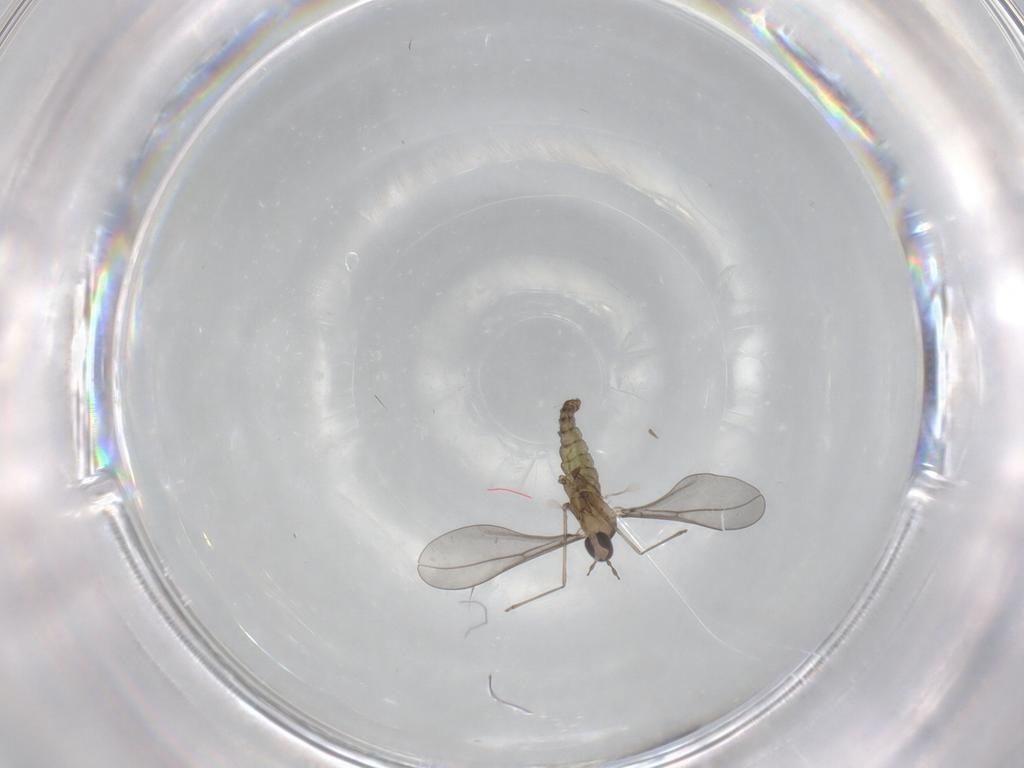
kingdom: Animalia
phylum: Arthropoda
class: Insecta
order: Diptera
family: Cecidomyiidae
